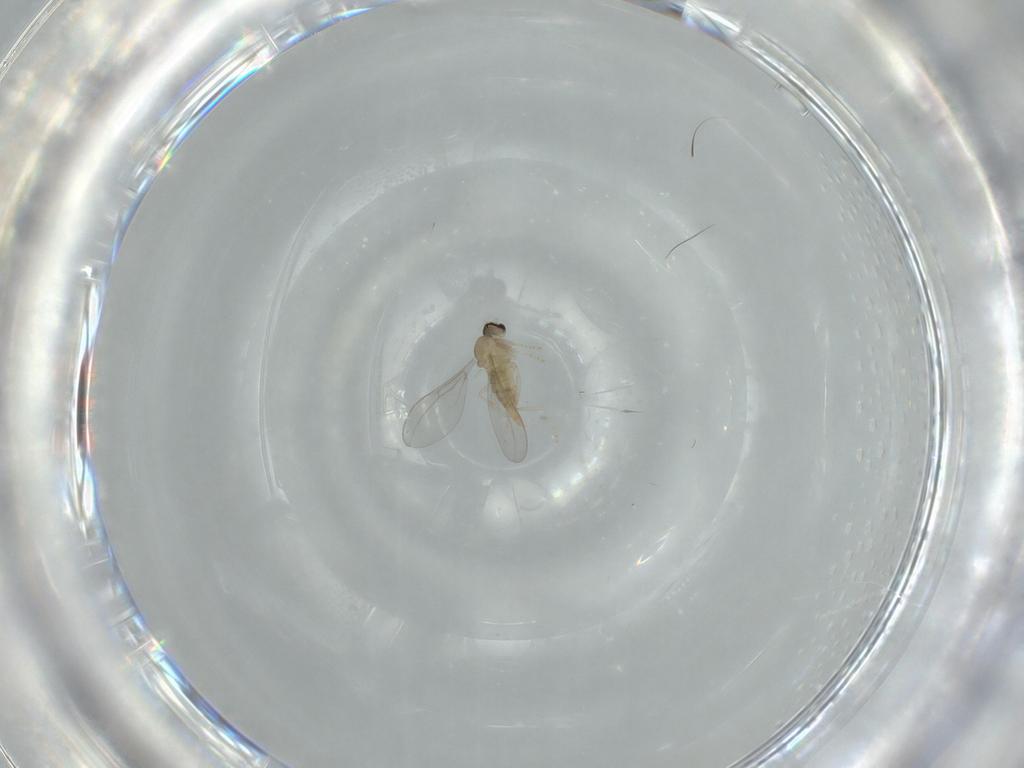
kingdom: Animalia
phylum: Arthropoda
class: Insecta
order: Diptera
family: Cecidomyiidae
